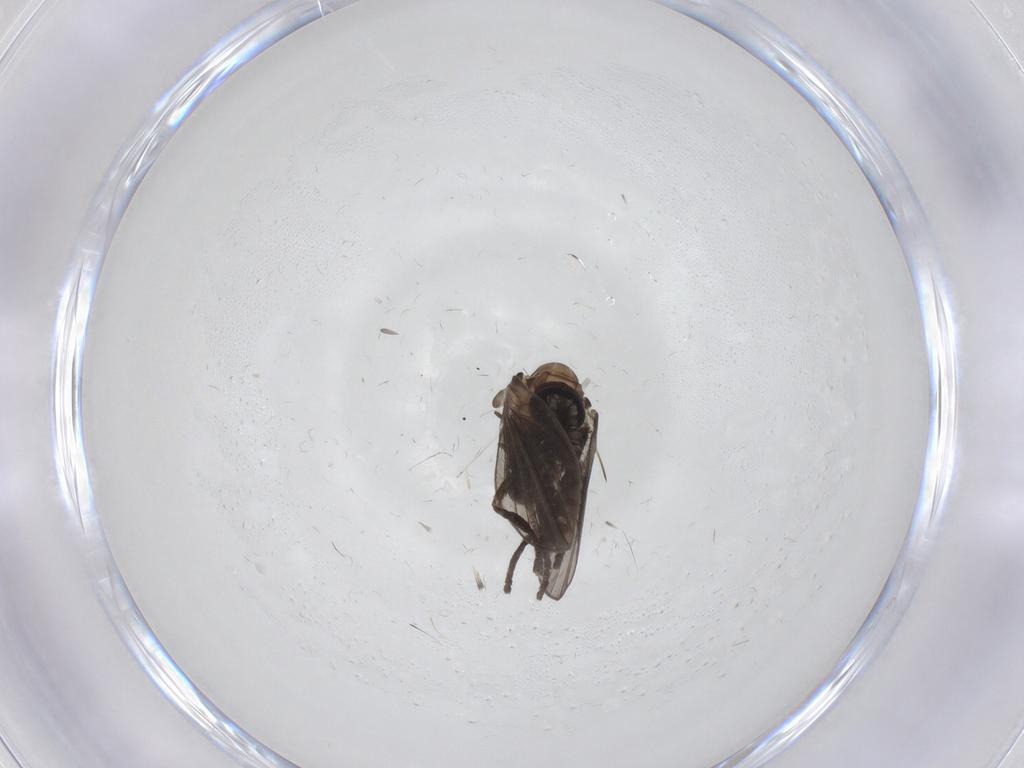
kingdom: Animalia
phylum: Arthropoda
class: Insecta
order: Diptera
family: Psychodidae
